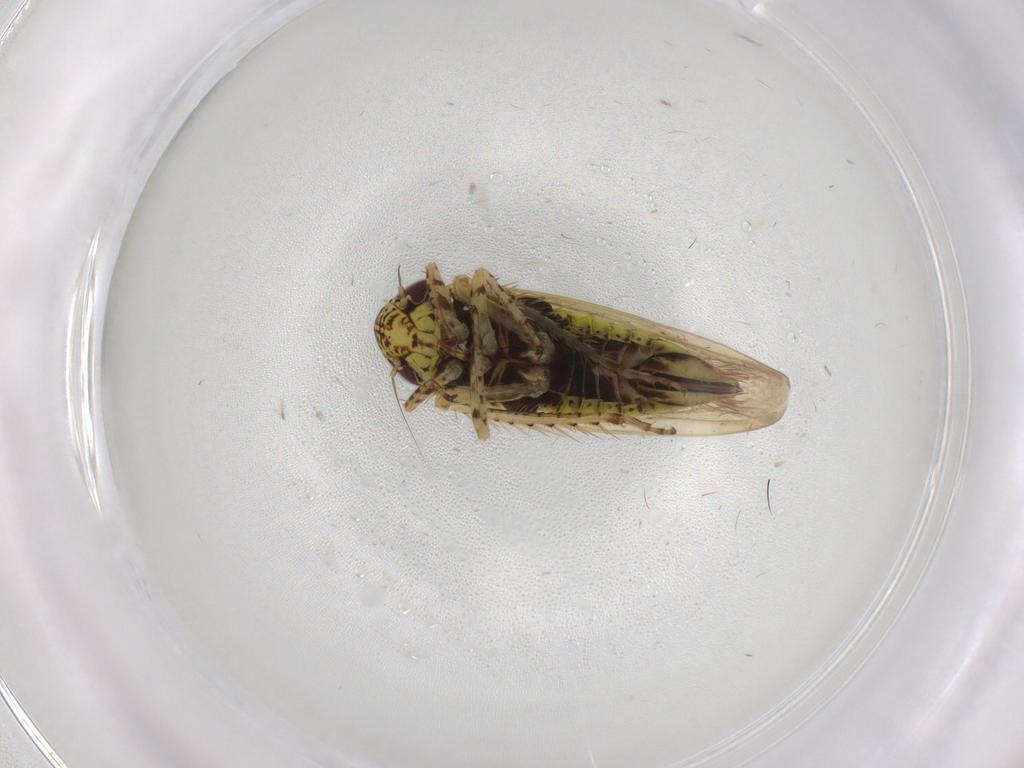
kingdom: Animalia
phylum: Arthropoda
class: Insecta
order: Hemiptera
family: Cicadellidae
